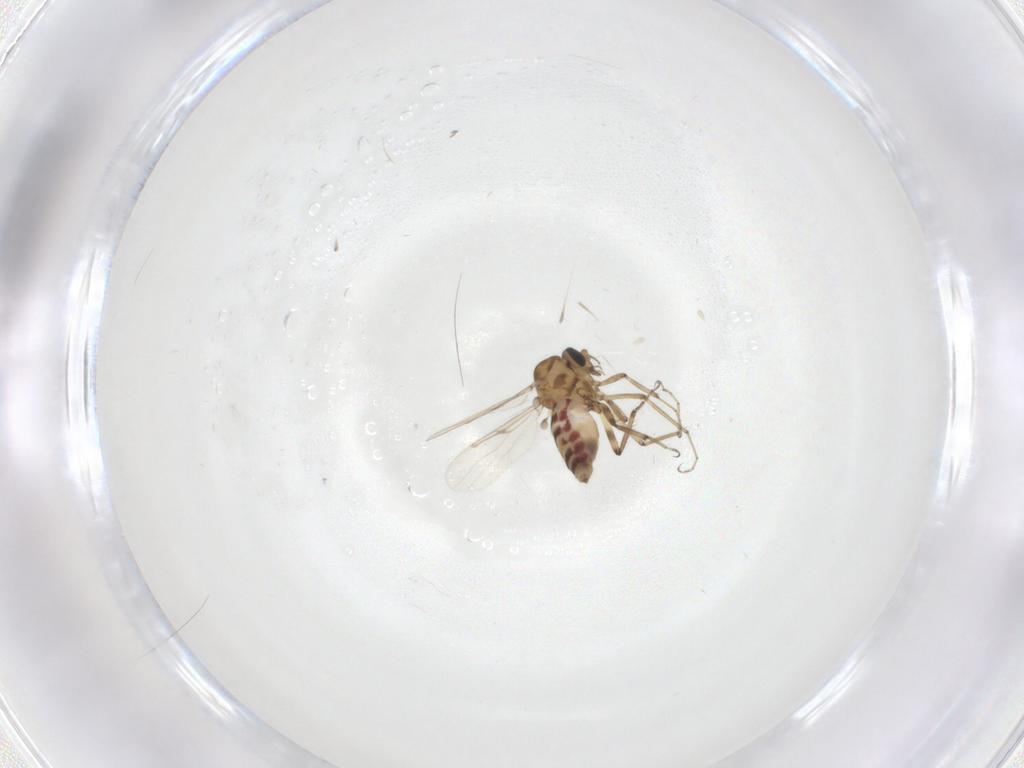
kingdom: Animalia
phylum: Arthropoda
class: Insecta
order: Diptera
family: Ceratopogonidae
